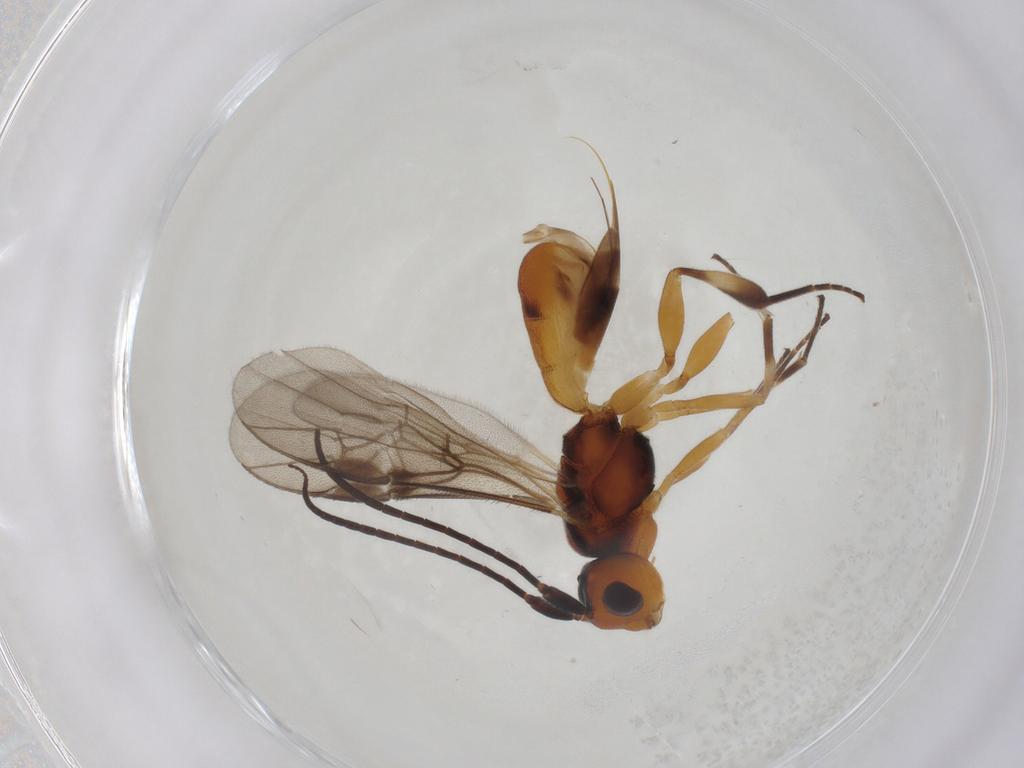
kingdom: Animalia
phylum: Arthropoda
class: Insecta
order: Hymenoptera
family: Braconidae
